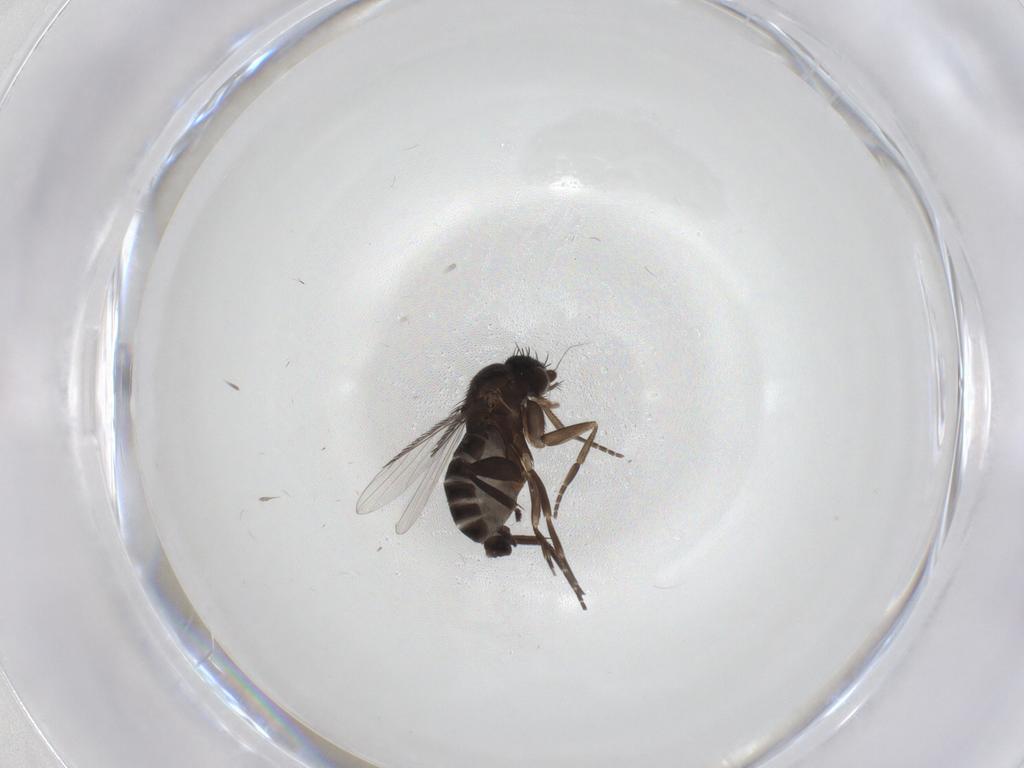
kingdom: Animalia
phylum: Arthropoda
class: Insecta
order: Diptera
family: Phoridae
